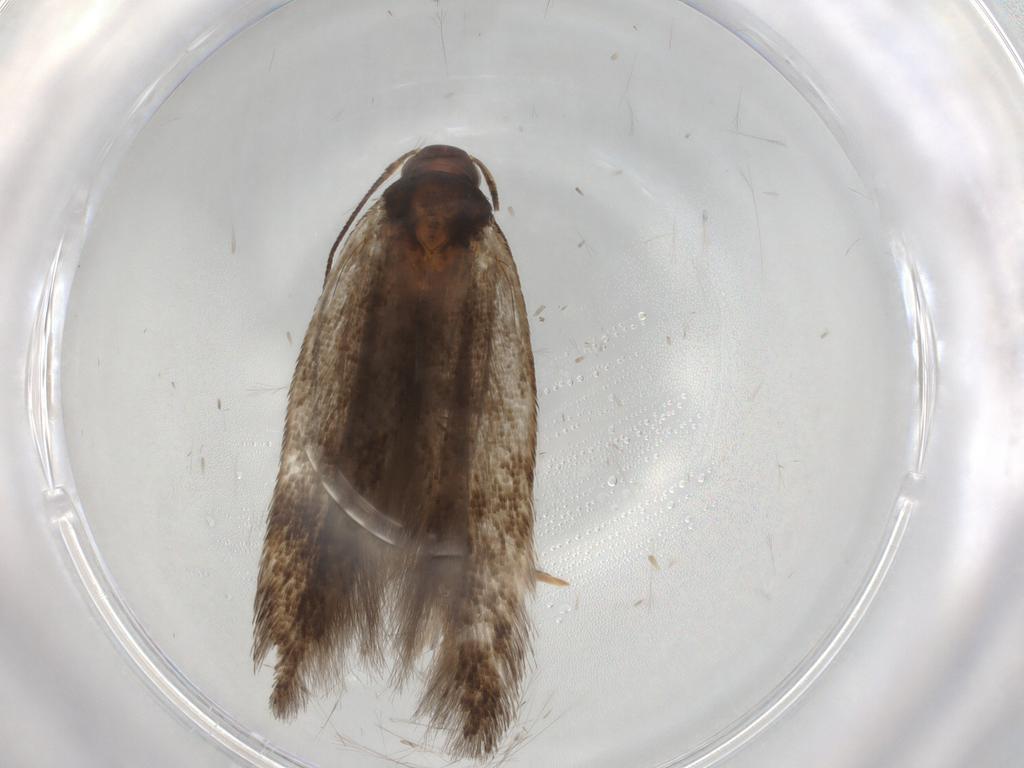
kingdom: Animalia
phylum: Arthropoda
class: Insecta
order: Lepidoptera
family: Gelechiidae
